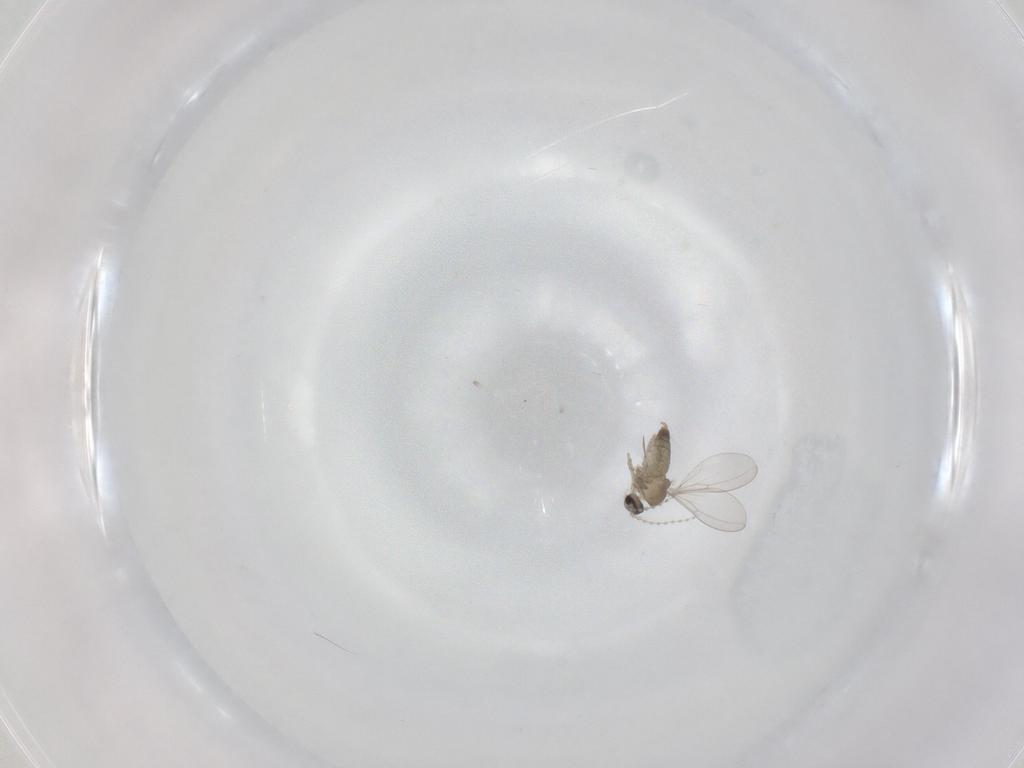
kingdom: Animalia
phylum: Arthropoda
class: Insecta
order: Diptera
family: Cecidomyiidae
